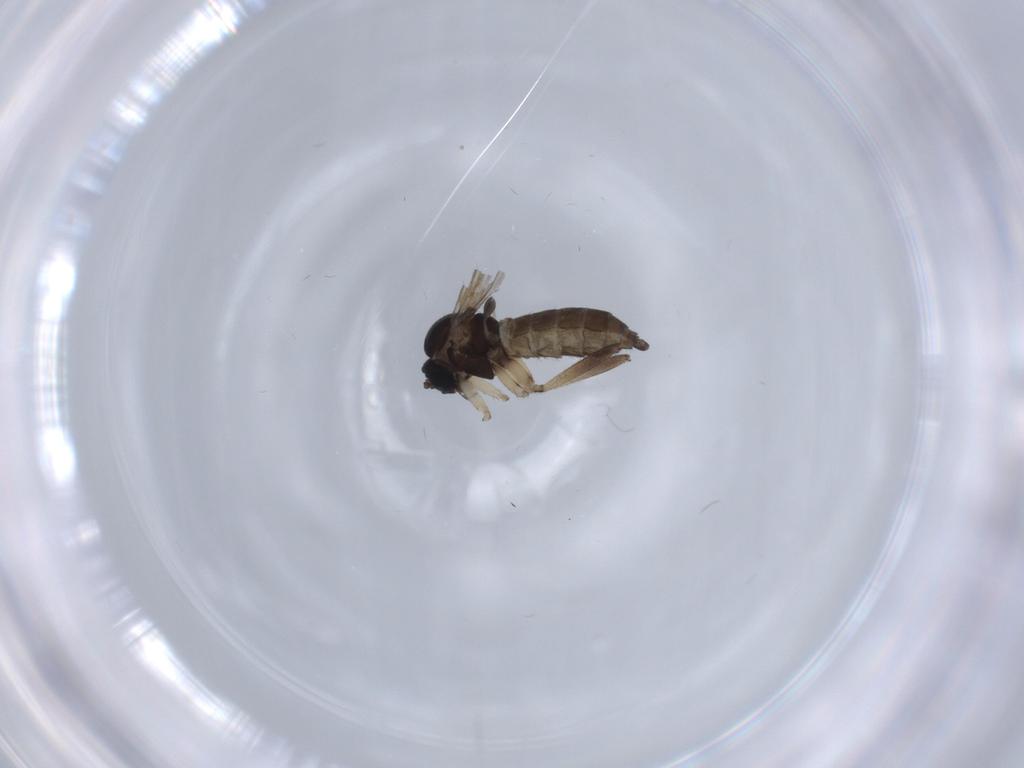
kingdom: Animalia
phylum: Arthropoda
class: Insecta
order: Diptera
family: Sciaridae
